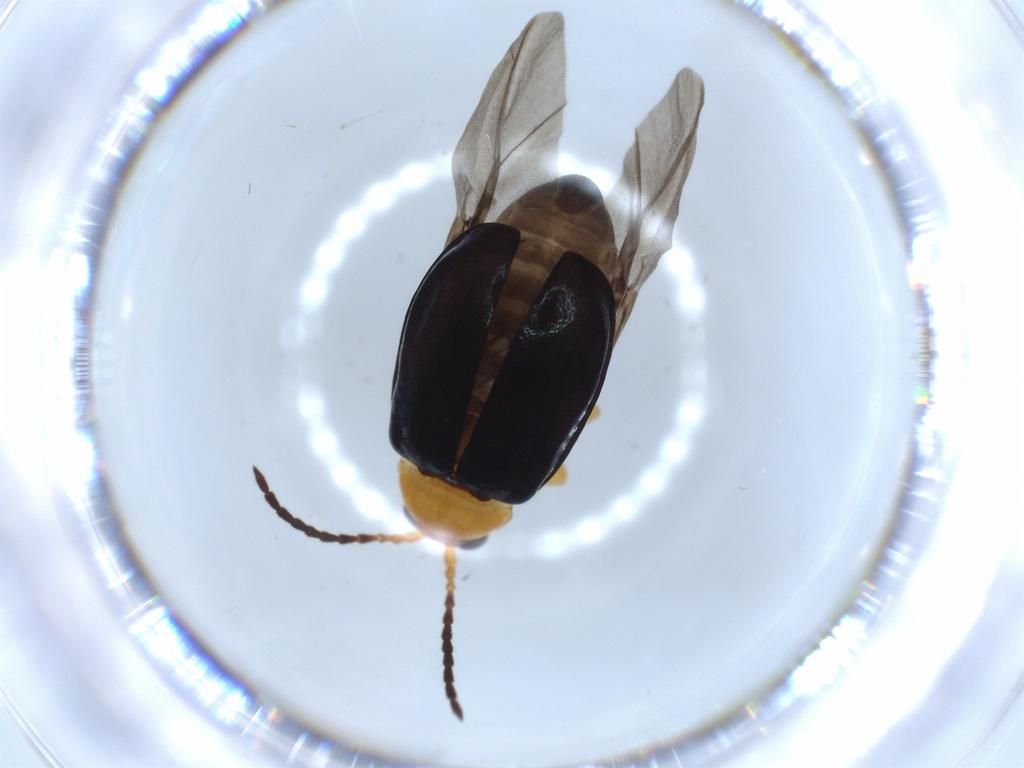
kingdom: Animalia
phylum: Arthropoda
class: Insecta
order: Coleoptera
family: Chrysomelidae
